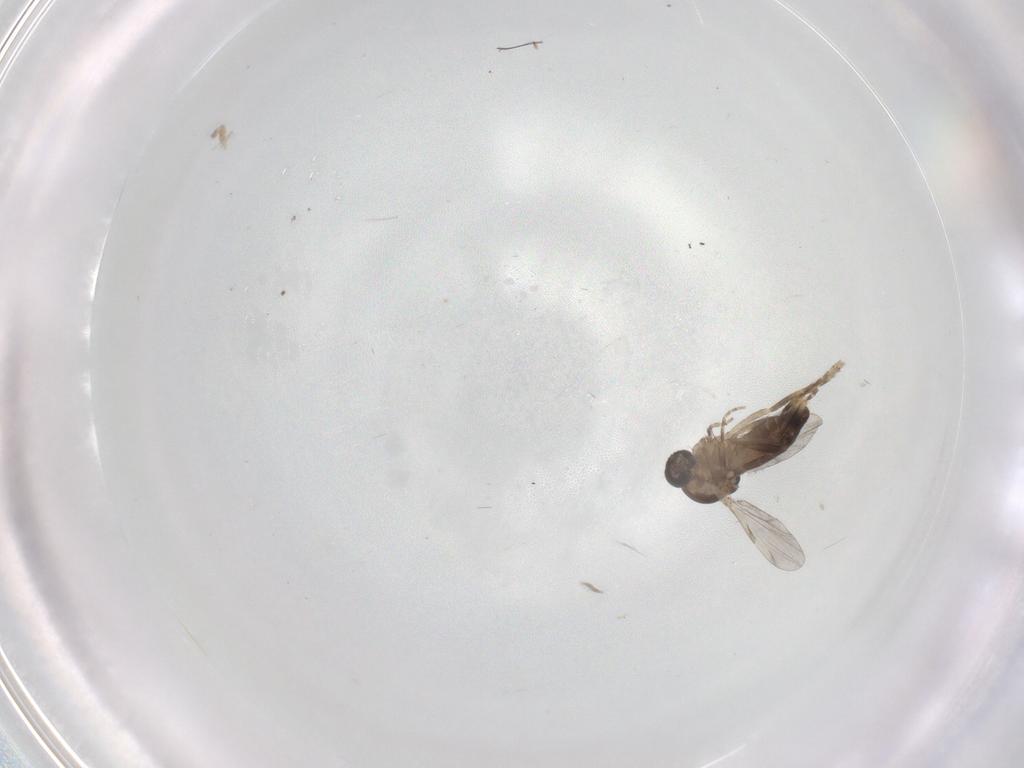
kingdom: Animalia
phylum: Arthropoda
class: Insecta
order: Diptera
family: Ceratopogonidae
